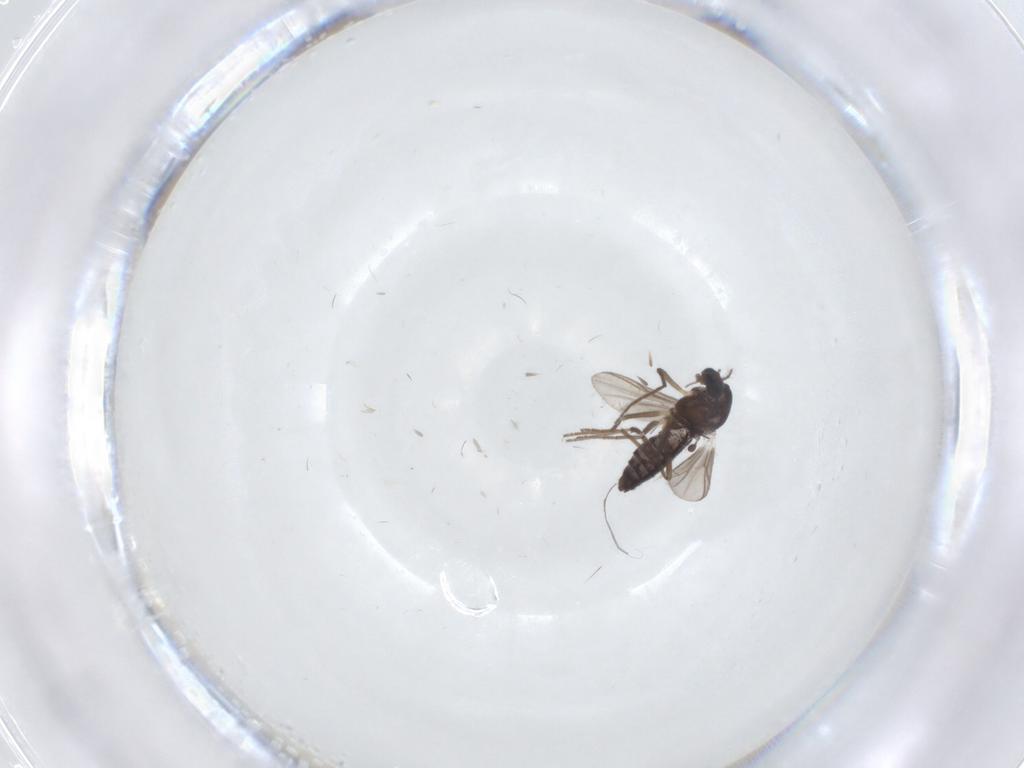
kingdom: Animalia
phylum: Arthropoda
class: Insecta
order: Diptera
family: Chironomidae
